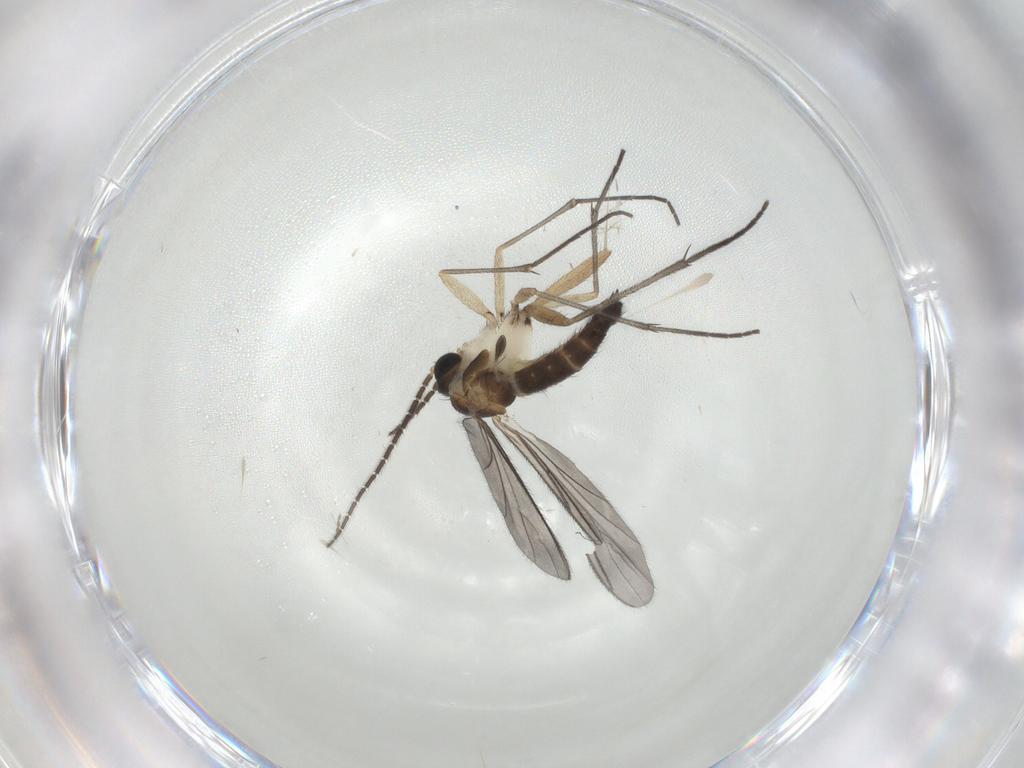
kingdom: Animalia
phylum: Arthropoda
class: Insecta
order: Diptera
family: Sciaridae
